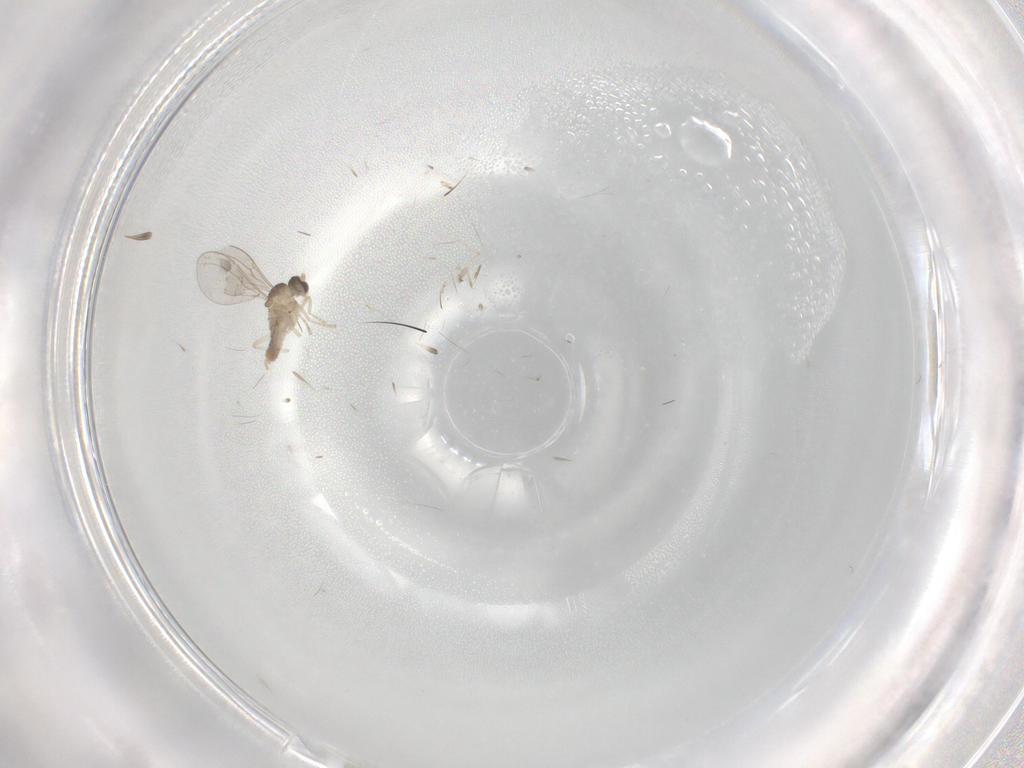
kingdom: Animalia
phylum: Arthropoda
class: Insecta
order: Diptera
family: Cecidomyiidae
